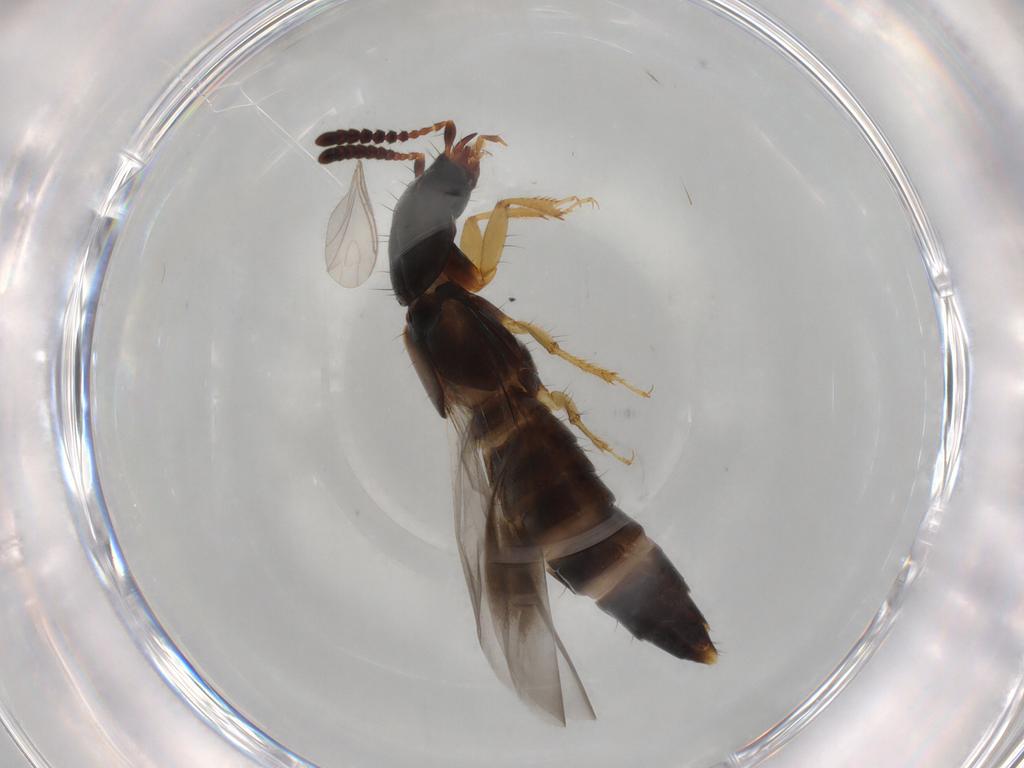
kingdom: Animalia
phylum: Arthropoda
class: Insecta
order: Coleoptera
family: Staphylinidae
